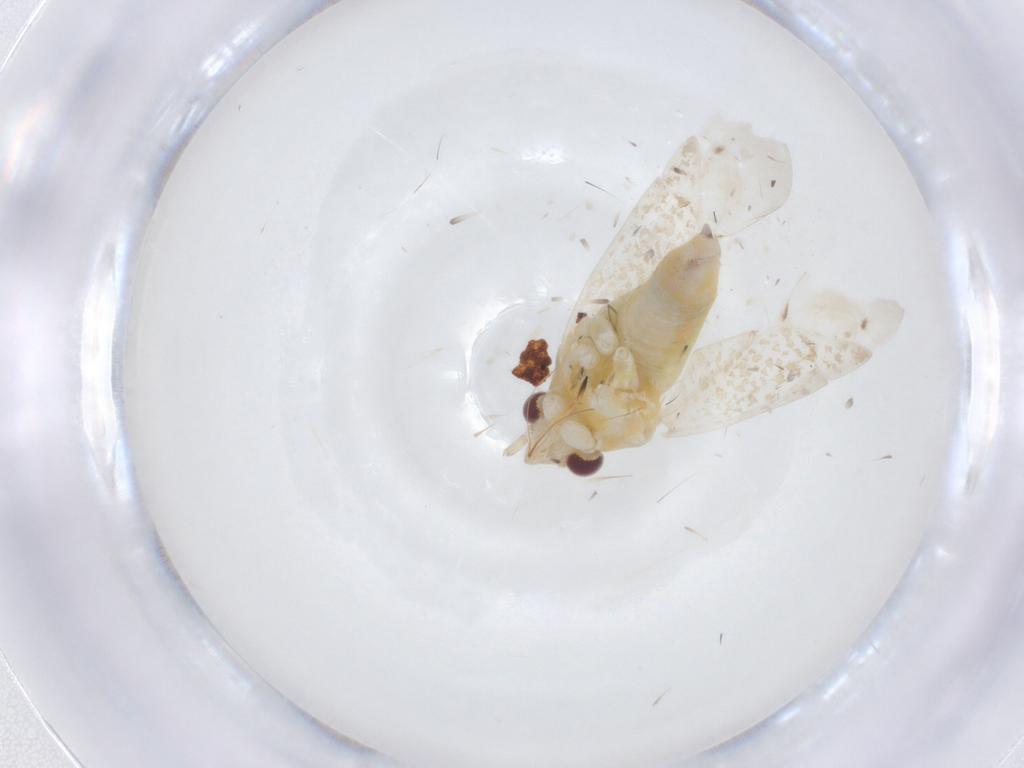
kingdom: Animalia
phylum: Arthropoda
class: Insecta
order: Hemiptera
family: Miridae
